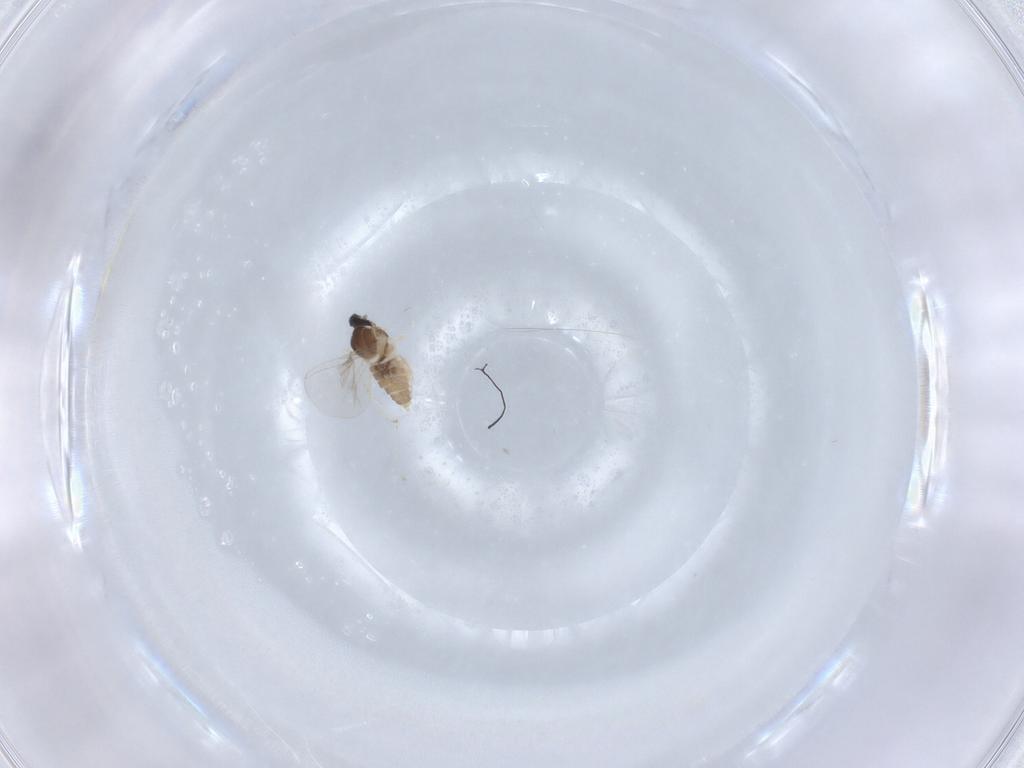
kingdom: Animalia
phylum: Arthropoda
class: Insecta
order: Diptera
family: Cecidomyiidae
